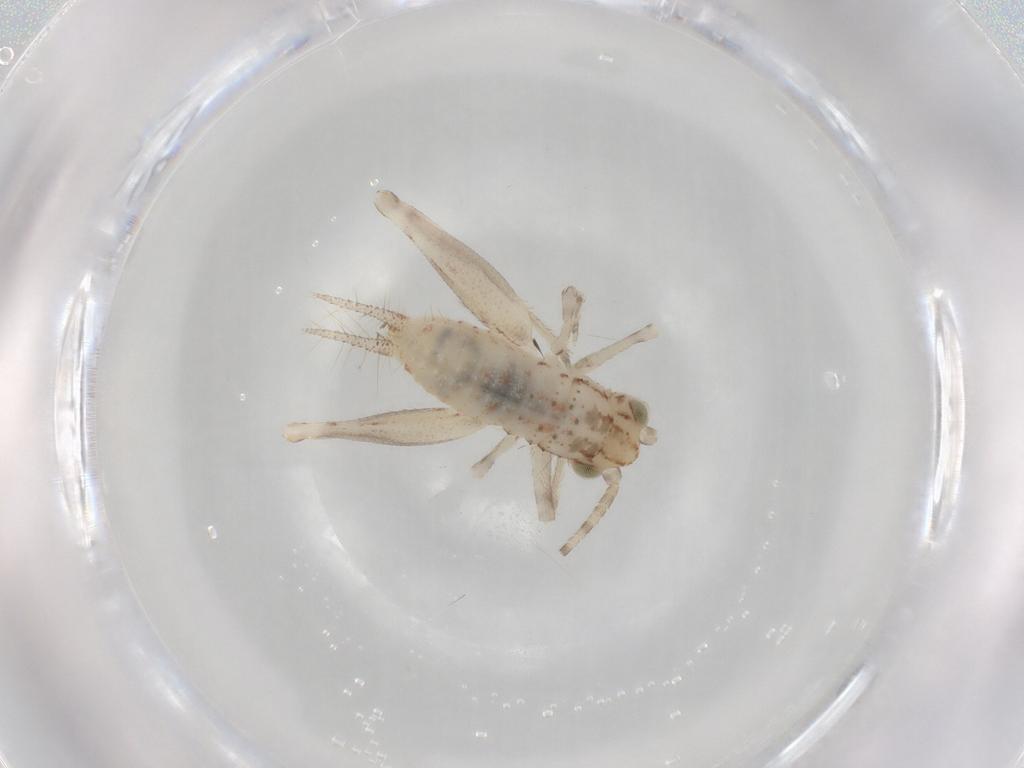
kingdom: Animalia
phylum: Arthropoda
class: Insecta
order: Orthoptera
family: Trigonidiidae
